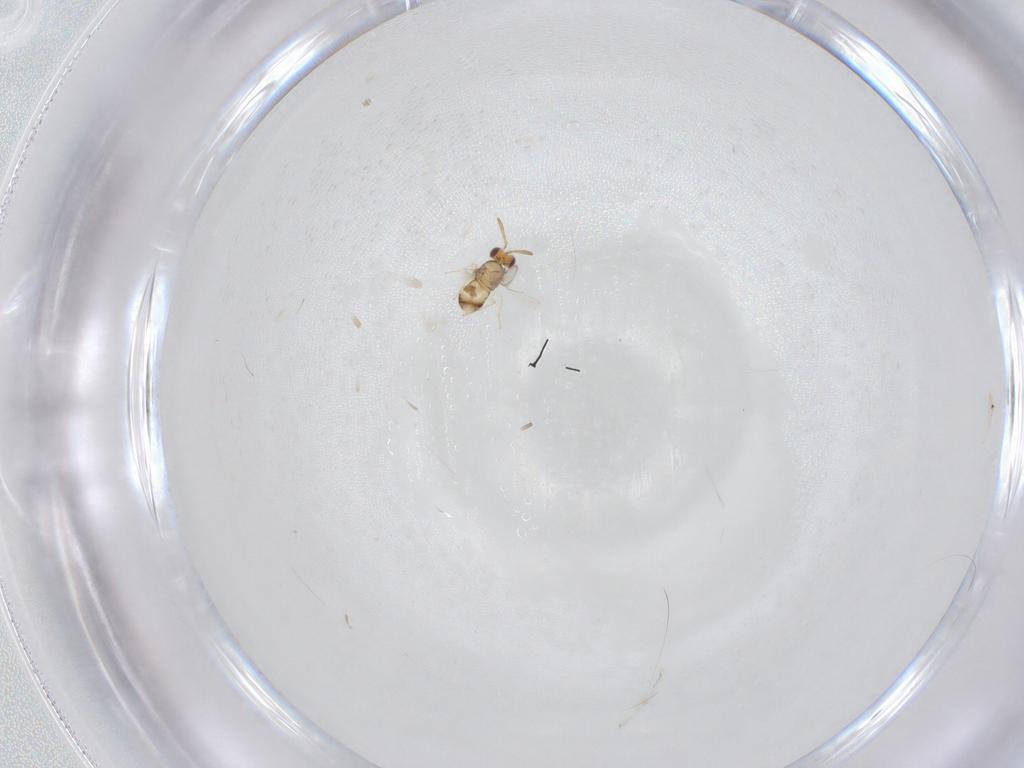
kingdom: Animalia
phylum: Arthropoda
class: Insecta
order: Hymenoptera
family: Aphelinidae
